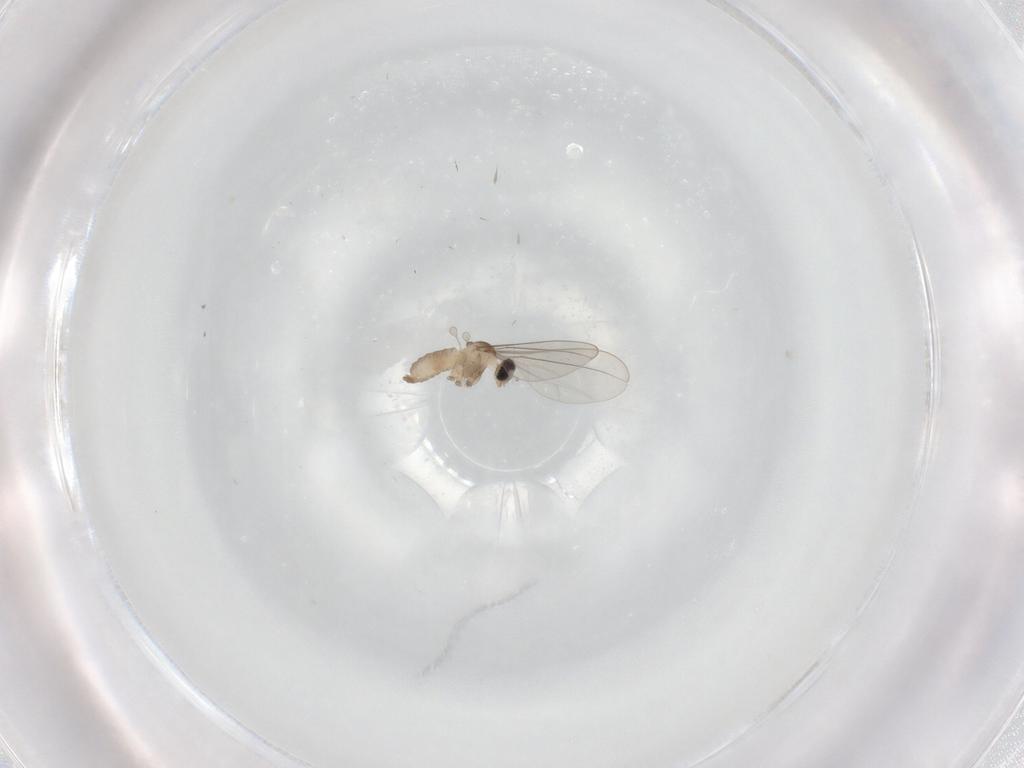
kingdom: Animalia
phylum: Arthropoda
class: Insecta
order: Diptera
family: Cecidomyiidae
